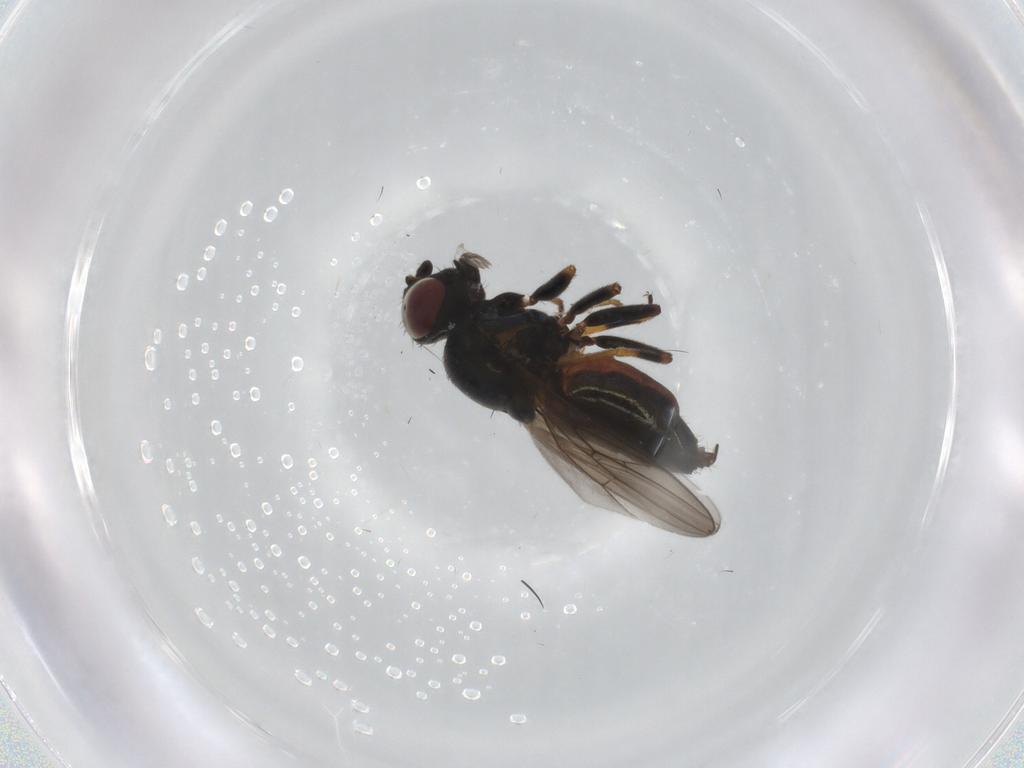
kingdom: Animalia
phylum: Arthropoda
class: Insecta
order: Diptera
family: Chloropidae
